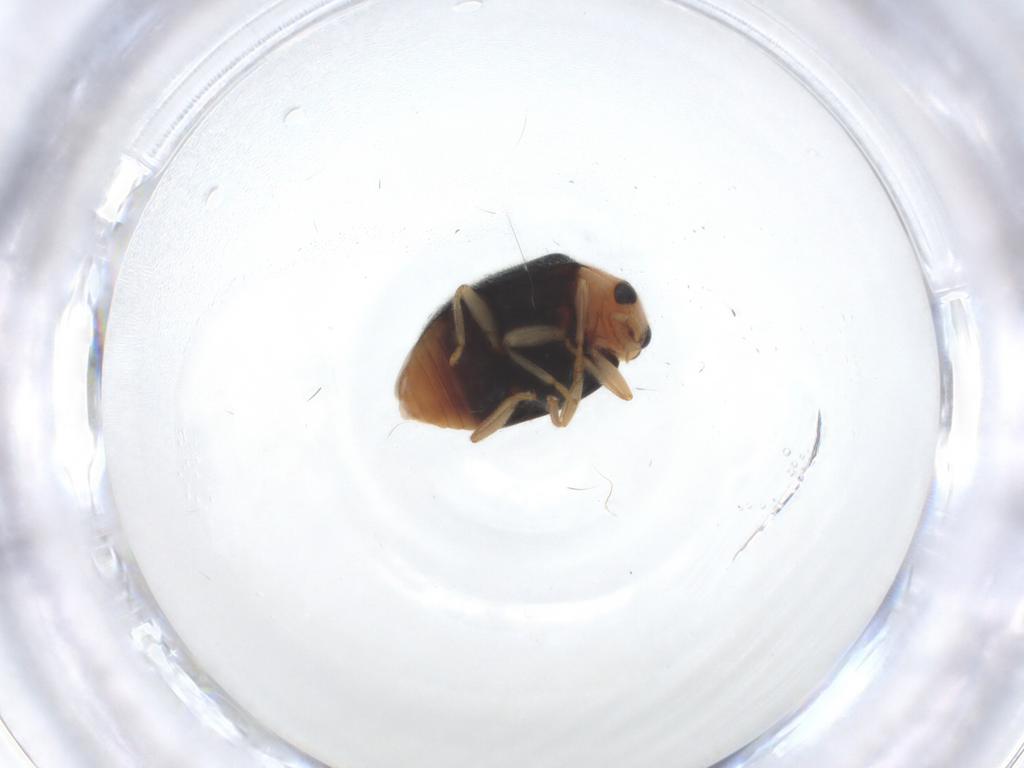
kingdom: Animalia
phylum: Arthropoda
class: Insecta
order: Coleoptera
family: Coccinellidae
